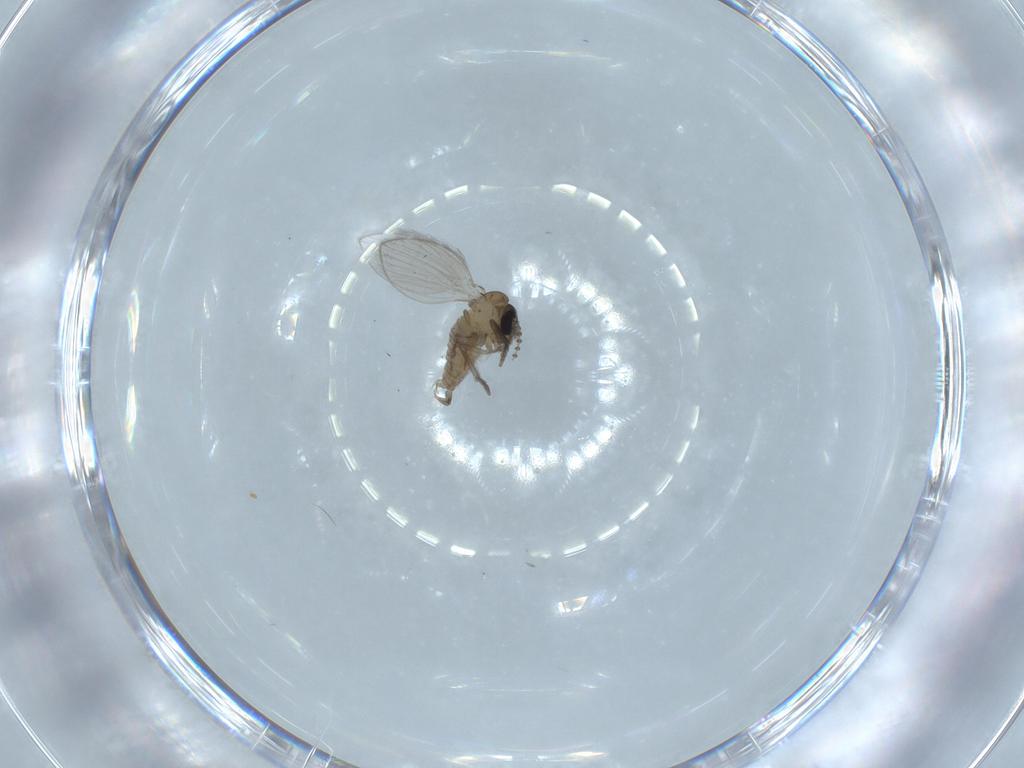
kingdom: Animalia
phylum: Arthropoda
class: Insecta
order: Diptera
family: Psychodidae
